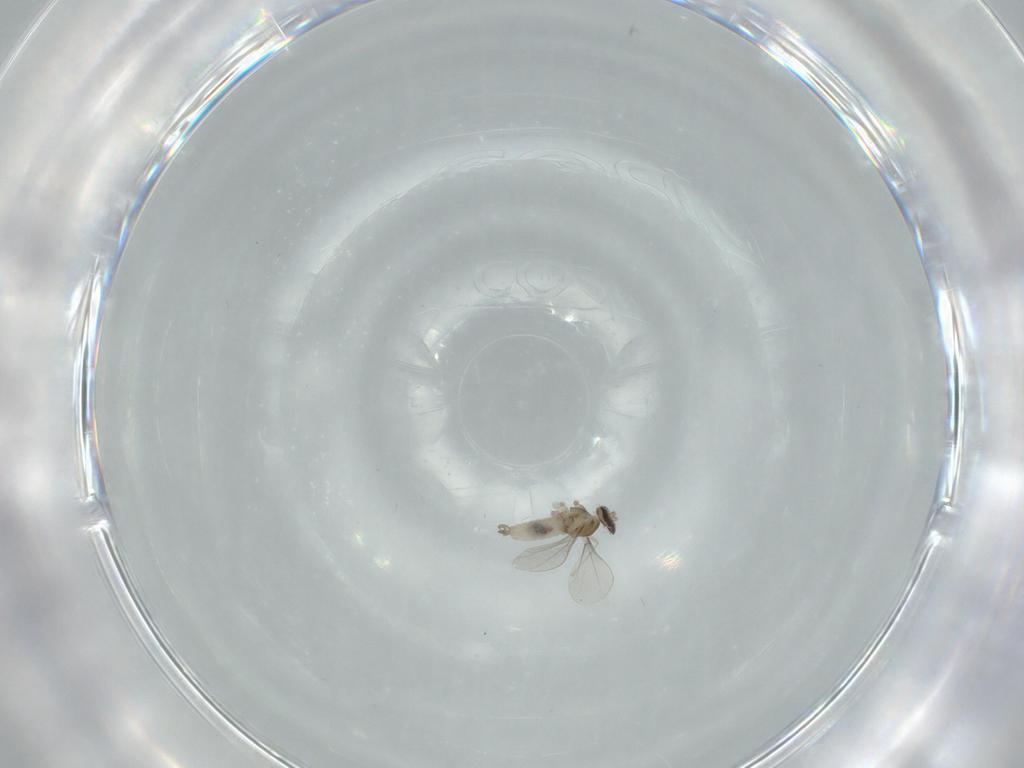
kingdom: Animalia
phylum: Arthropoda
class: Insecta
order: Diptera
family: Cecidomyiidae
